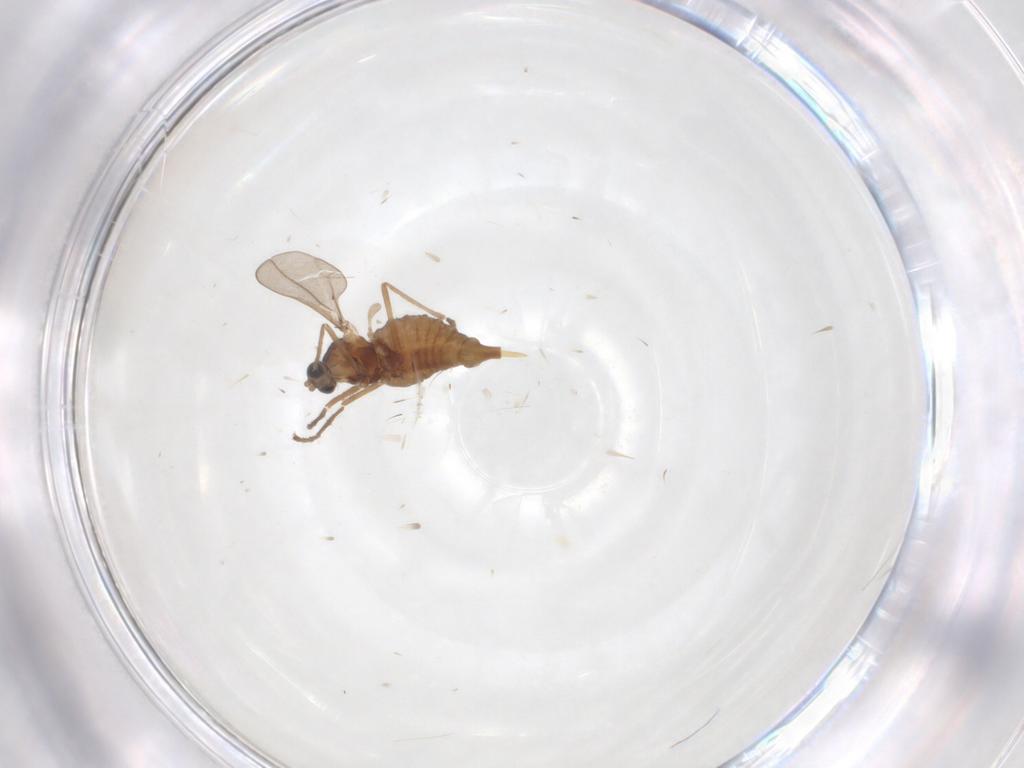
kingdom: Animalia
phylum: Arthropoda
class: Insecta
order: Diptera
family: Cecidomyiidae
